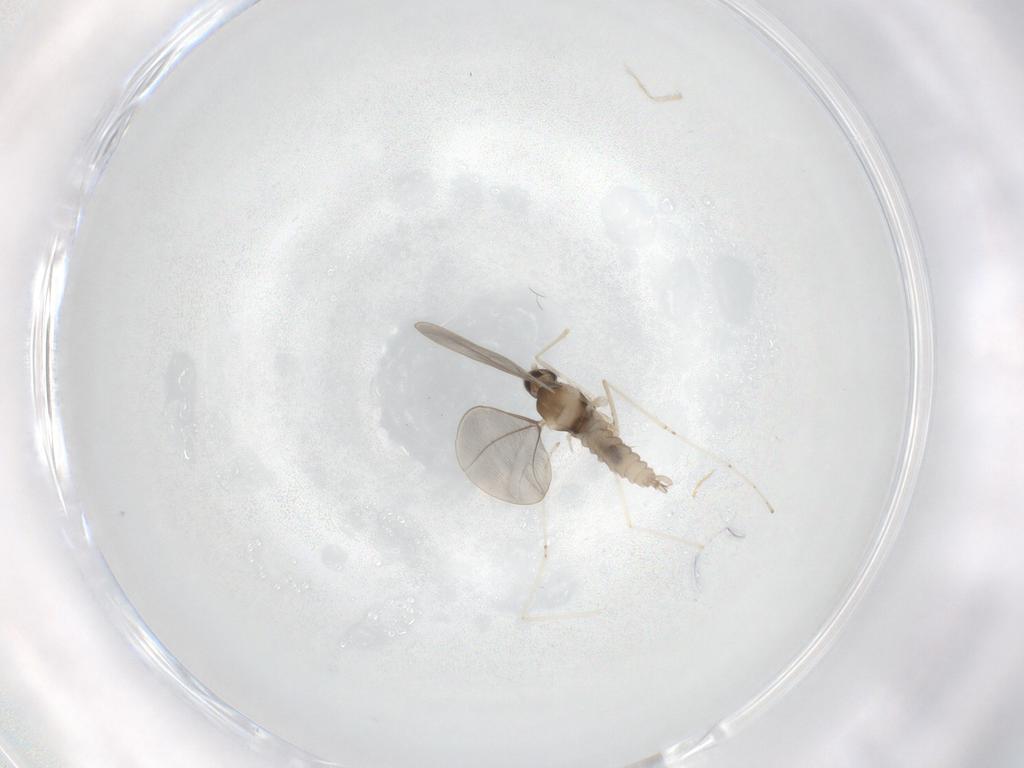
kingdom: Animalia
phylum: Arthropoda
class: Insecta
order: Diptera
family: Cecidomyiidae
